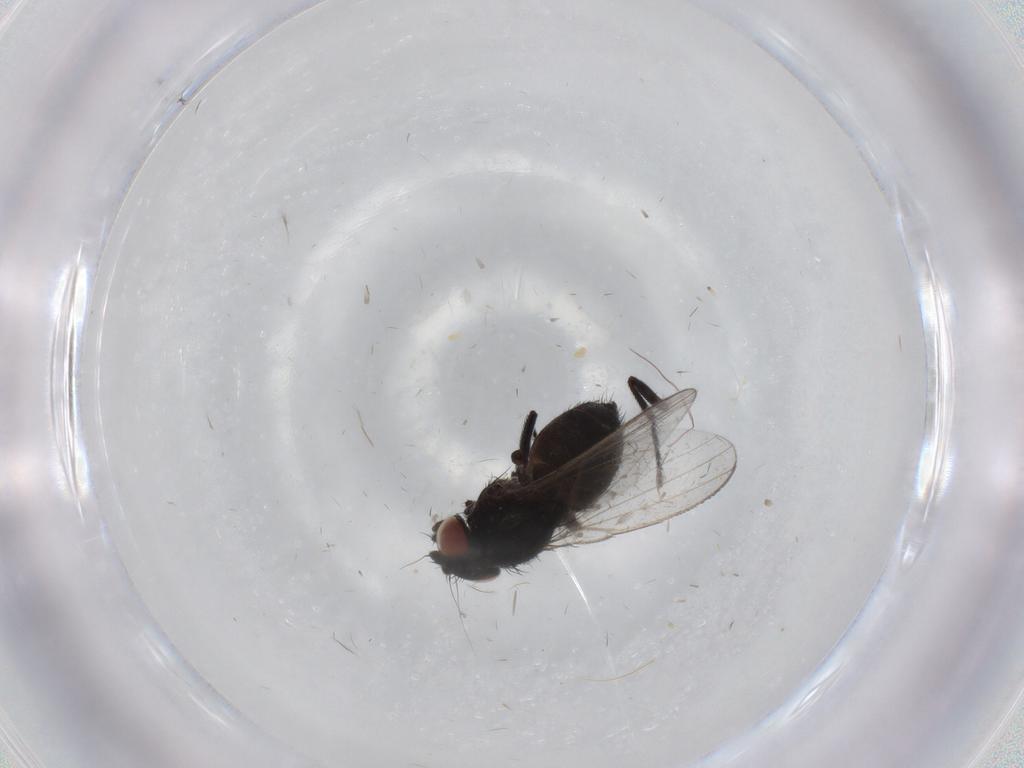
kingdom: Animalia
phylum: Arthropoda
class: Insecta
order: Diptera
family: Milichiidae
